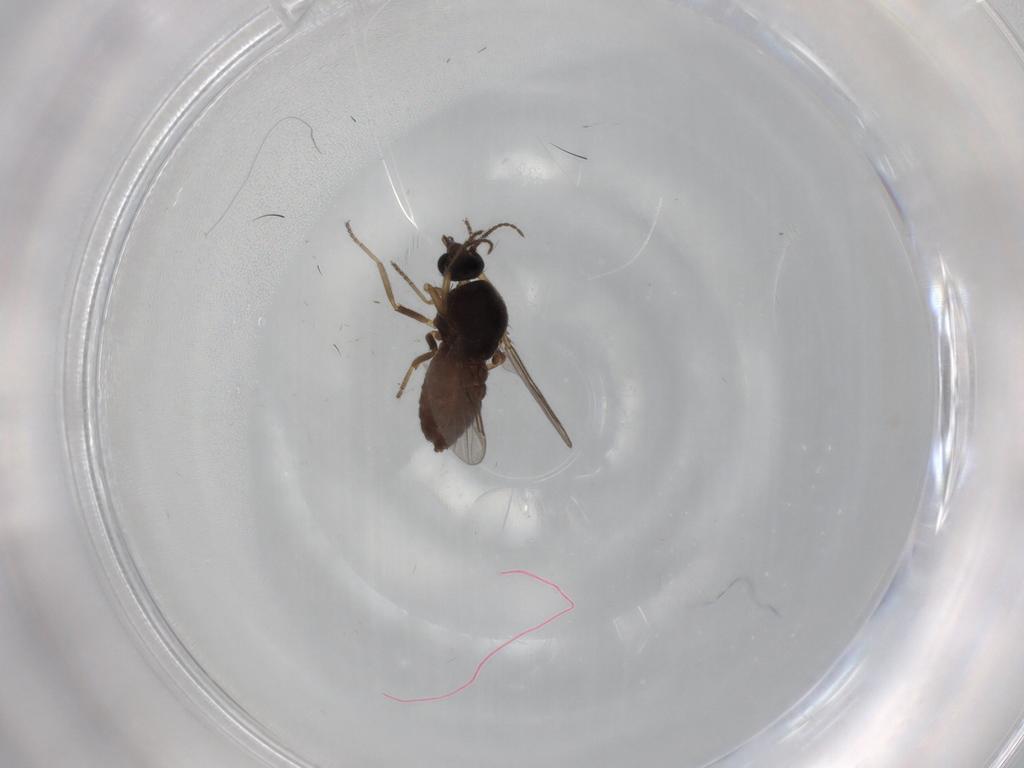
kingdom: Animalia
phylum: Arthropoda
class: Insecta
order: Diptera
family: Ceratopogonidae
